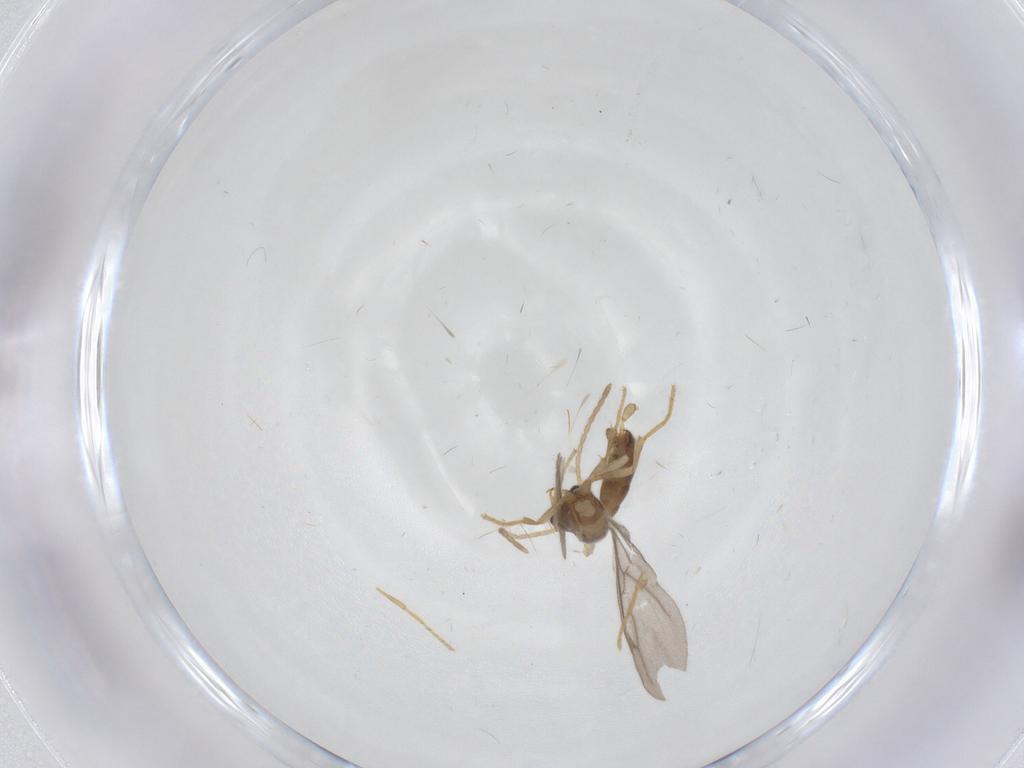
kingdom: Animalia
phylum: Arthropoda
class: Insecta
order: Hymenoptera
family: Formicidae
